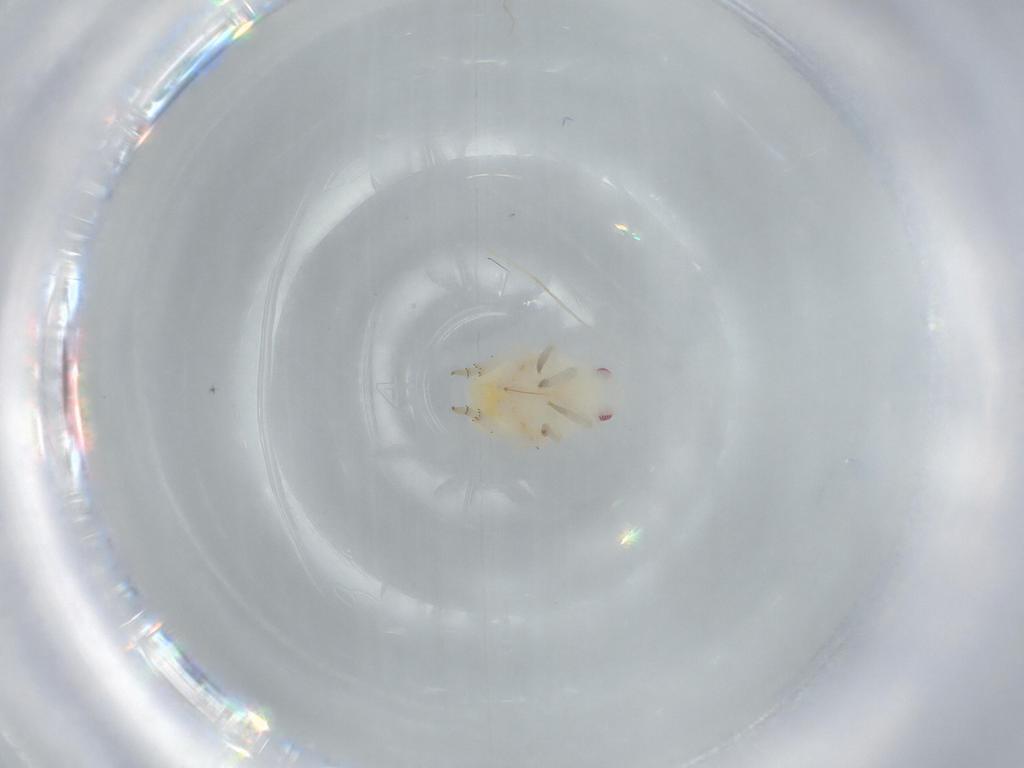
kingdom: Animalia
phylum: Arthropoda
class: Insecta
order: Hemiptera
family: Flatidae
